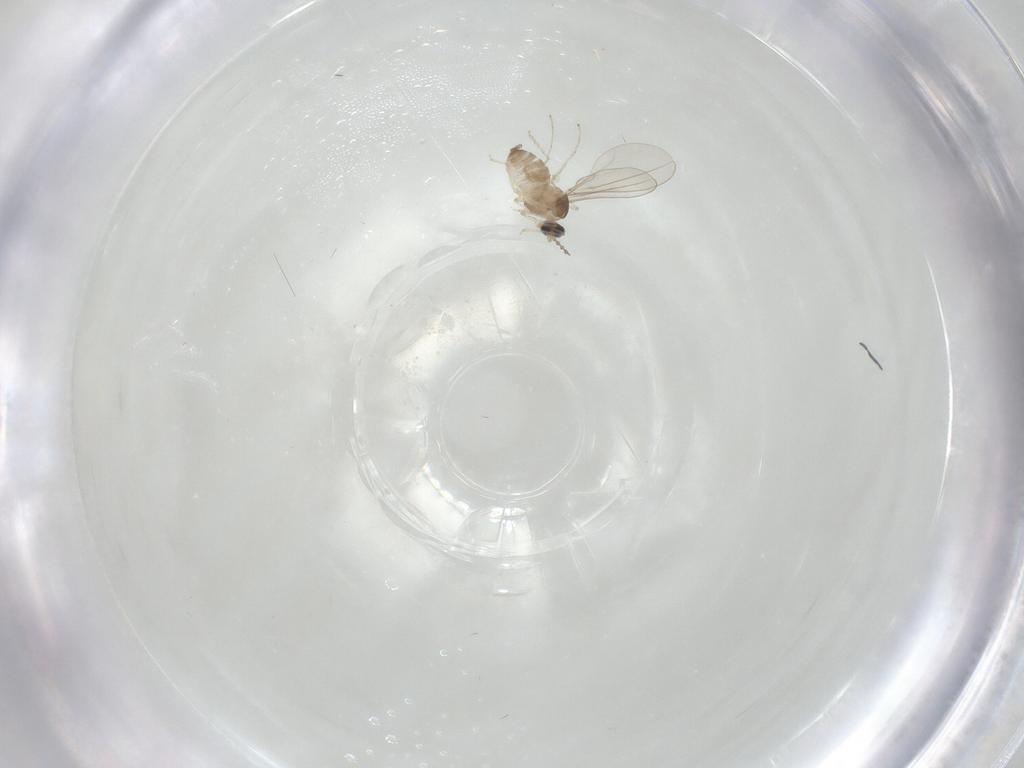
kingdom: Animalia
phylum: Arthropoda
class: Insecta
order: Diptera
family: Cecidomyiidae
